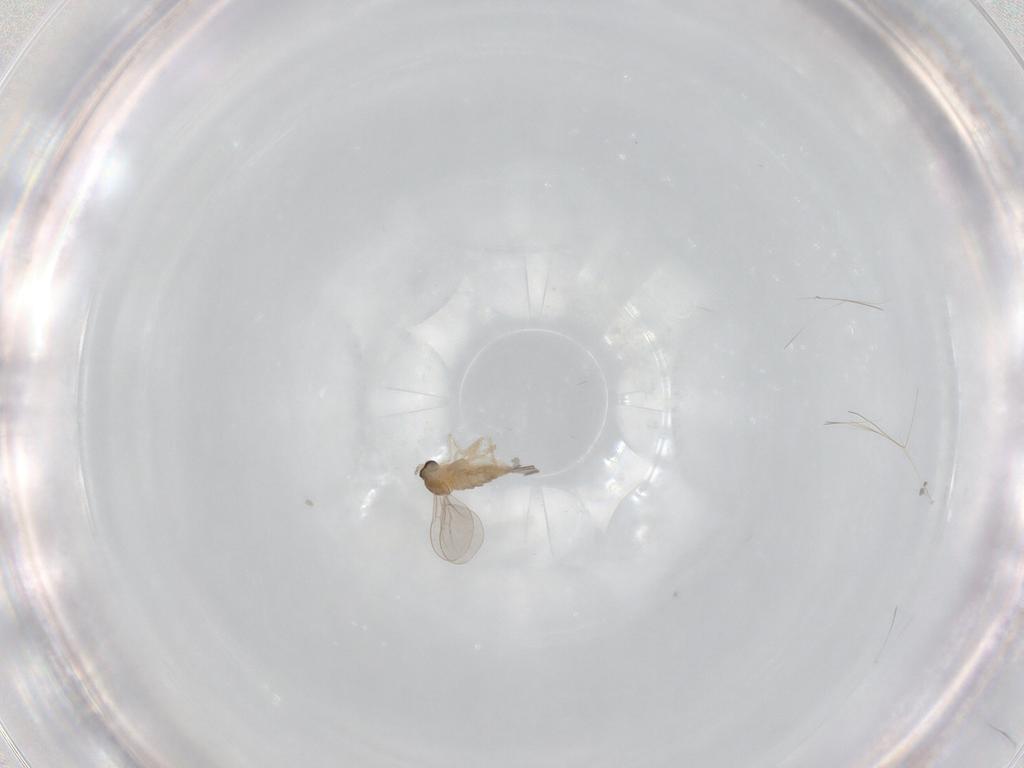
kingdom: Animalia
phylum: Arthropoda
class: Insecta
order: Diptera
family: Cecidomyiidae
